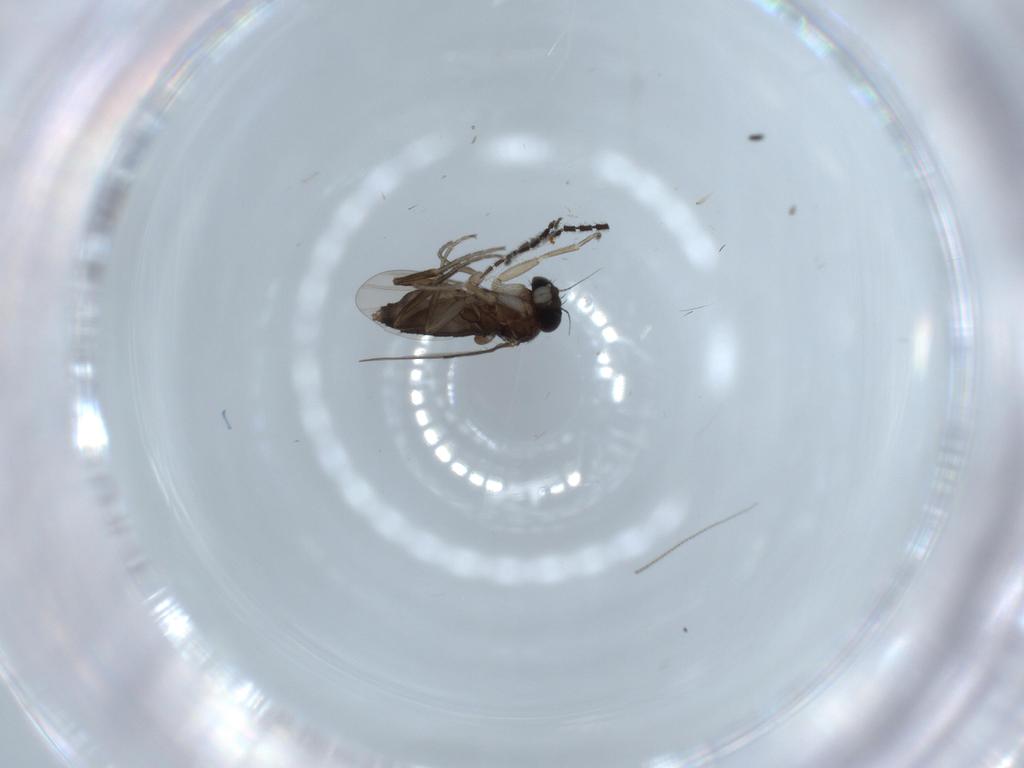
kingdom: Animalia
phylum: Arthropoda
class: Insecta
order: Diptera
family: Phoridae
